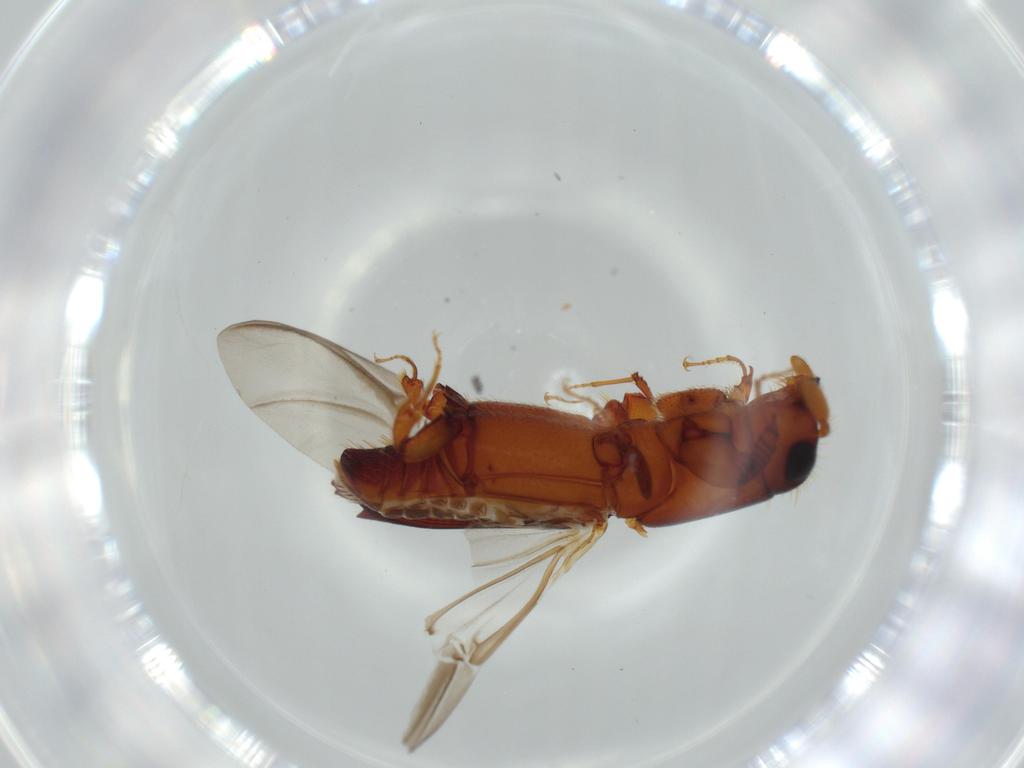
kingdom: Animalia
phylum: Arthropoda
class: Insecta
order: Coleoptera
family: Curculionidae
